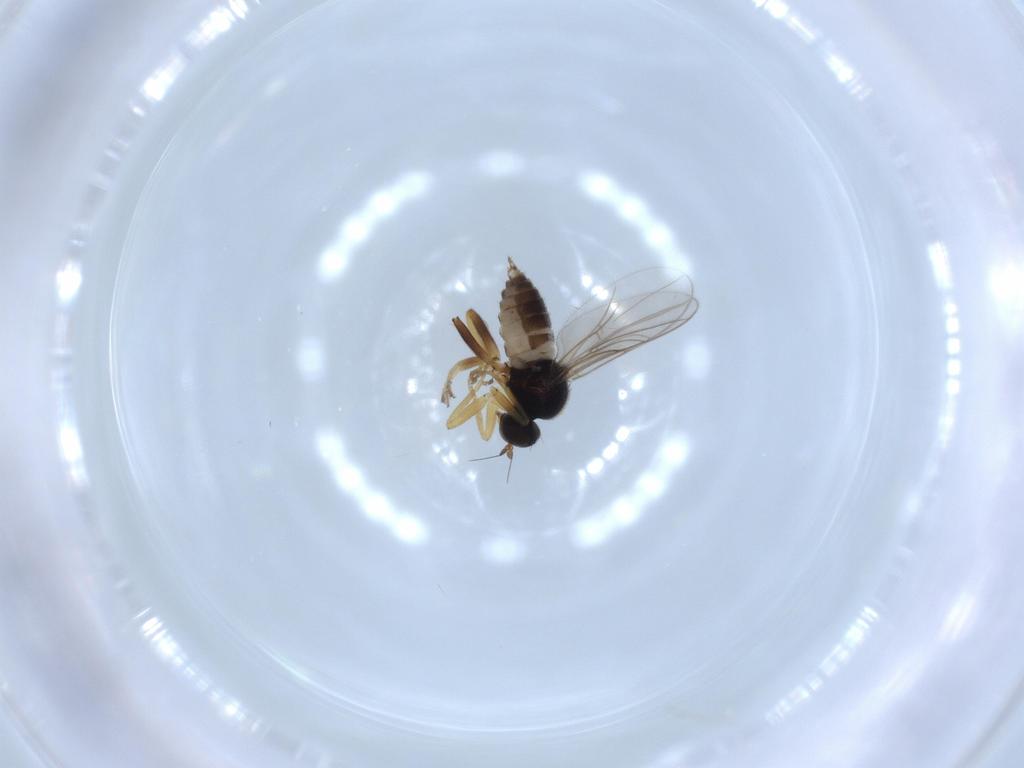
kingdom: Animalia
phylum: Arthropoda
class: Insecta
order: Diptera
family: Hybotidae
